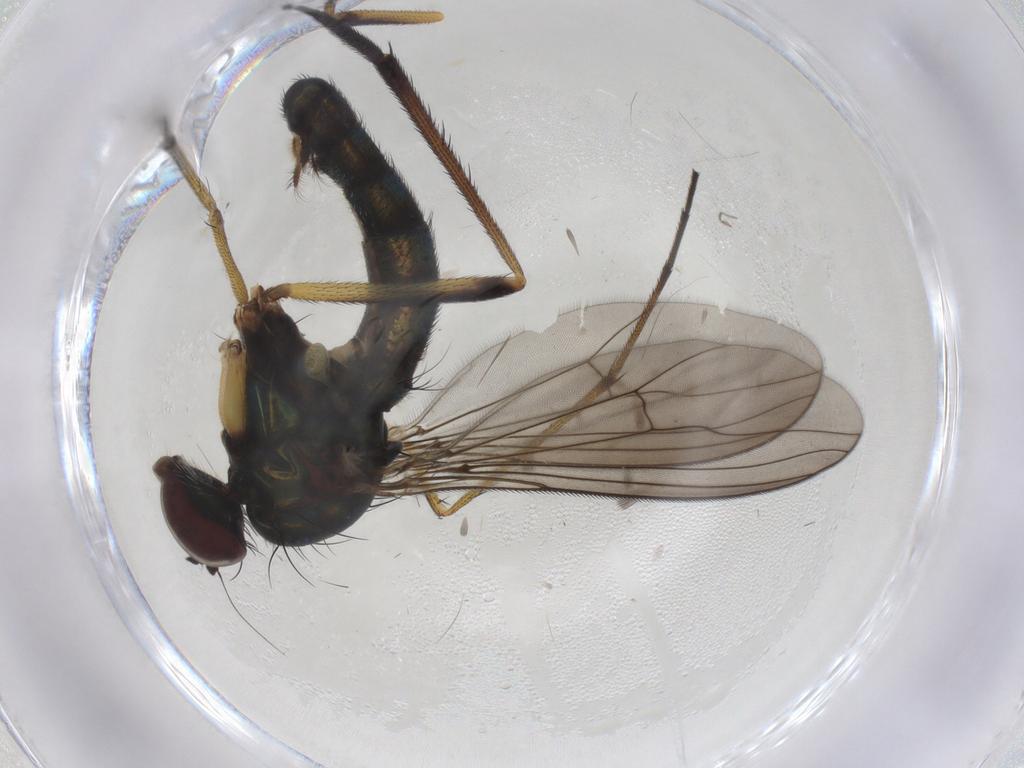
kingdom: Animalia
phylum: Arthropoda
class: Insecta
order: Diptera
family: Dolichopodidae
